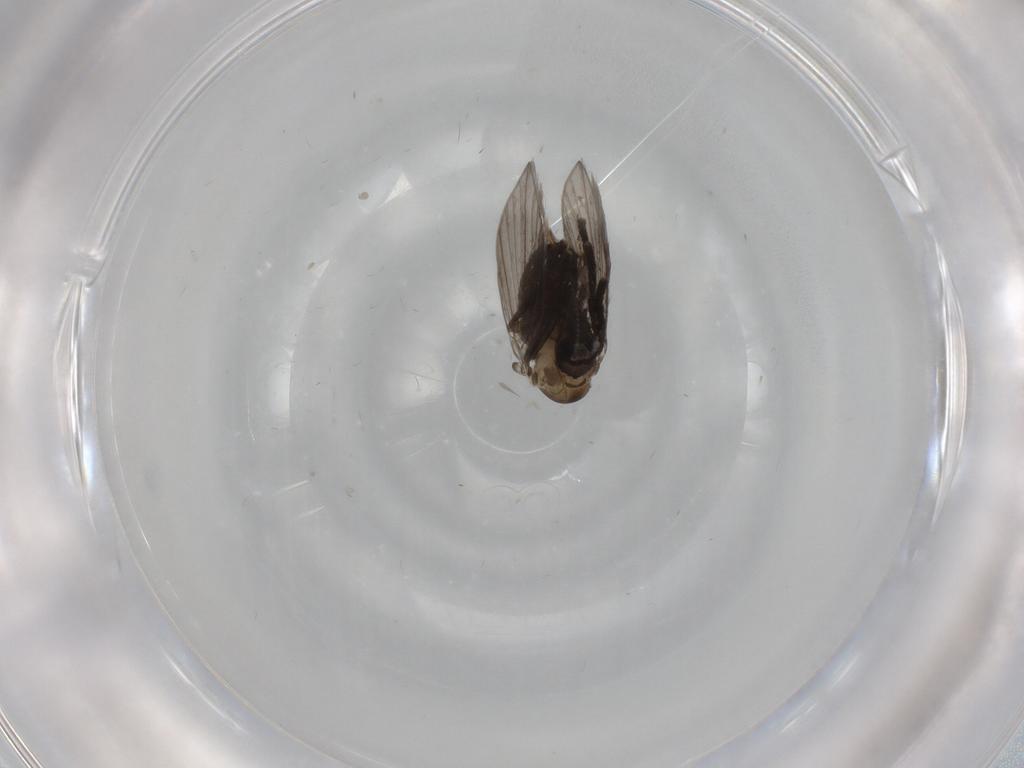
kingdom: Animalia
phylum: Arthropoda
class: Insecta
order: Diptera
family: Psychodidae
